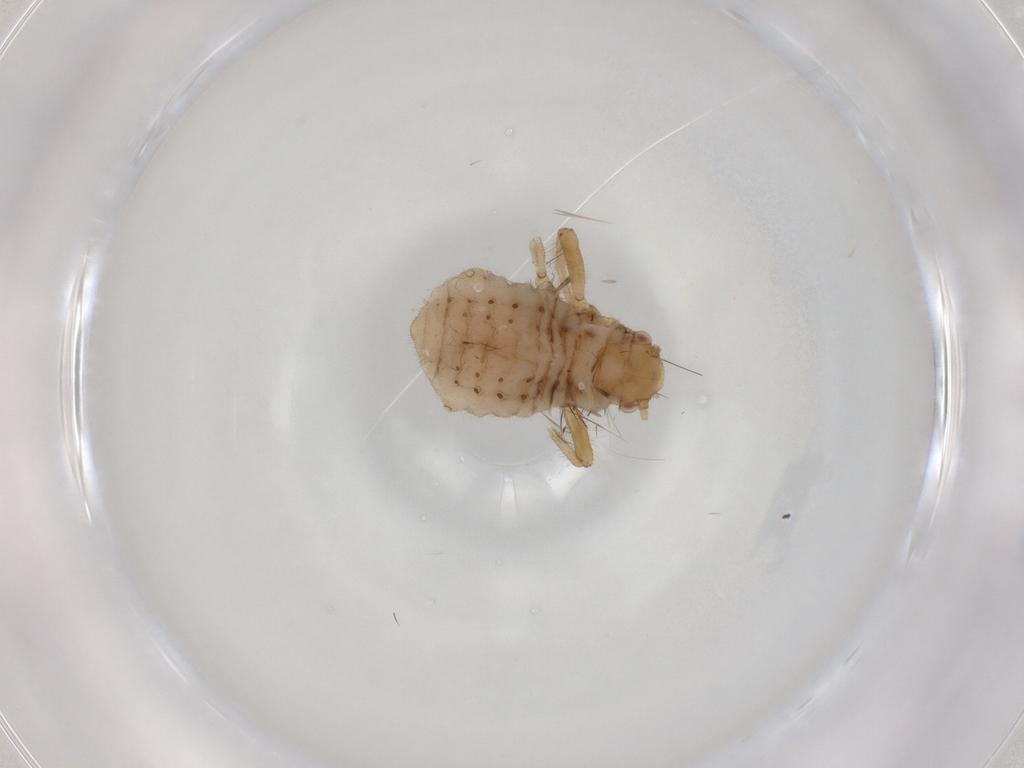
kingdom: Animalia
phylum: Arthropoda
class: Insecta
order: Hemiptera
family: Aphididae
